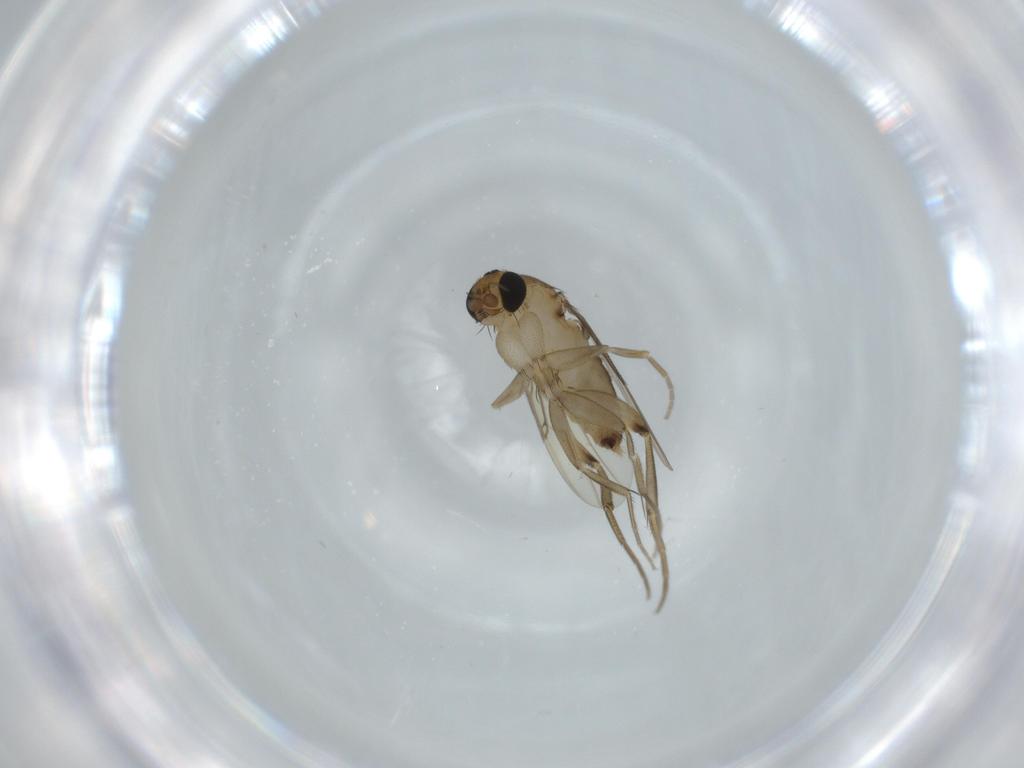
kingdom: Animalia
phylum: Arthropoda
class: Insecta
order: Diptera
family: Phoridae
